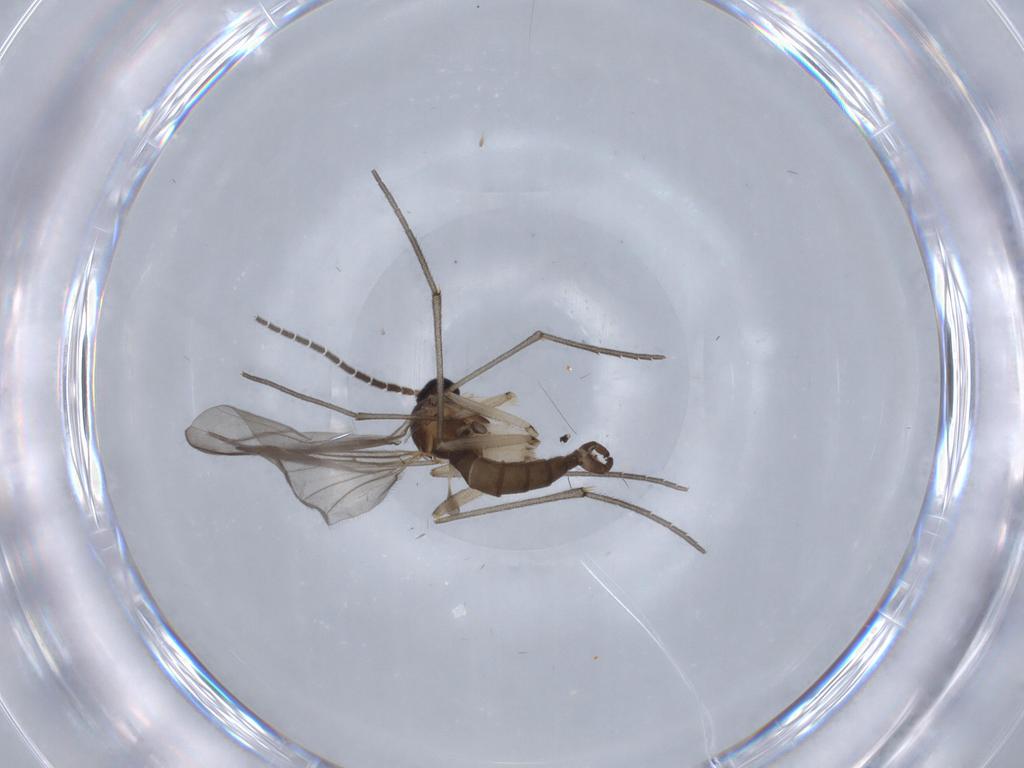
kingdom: Animalia
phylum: Arthropoda
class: Insecta
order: Diptera
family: Sciaridae
